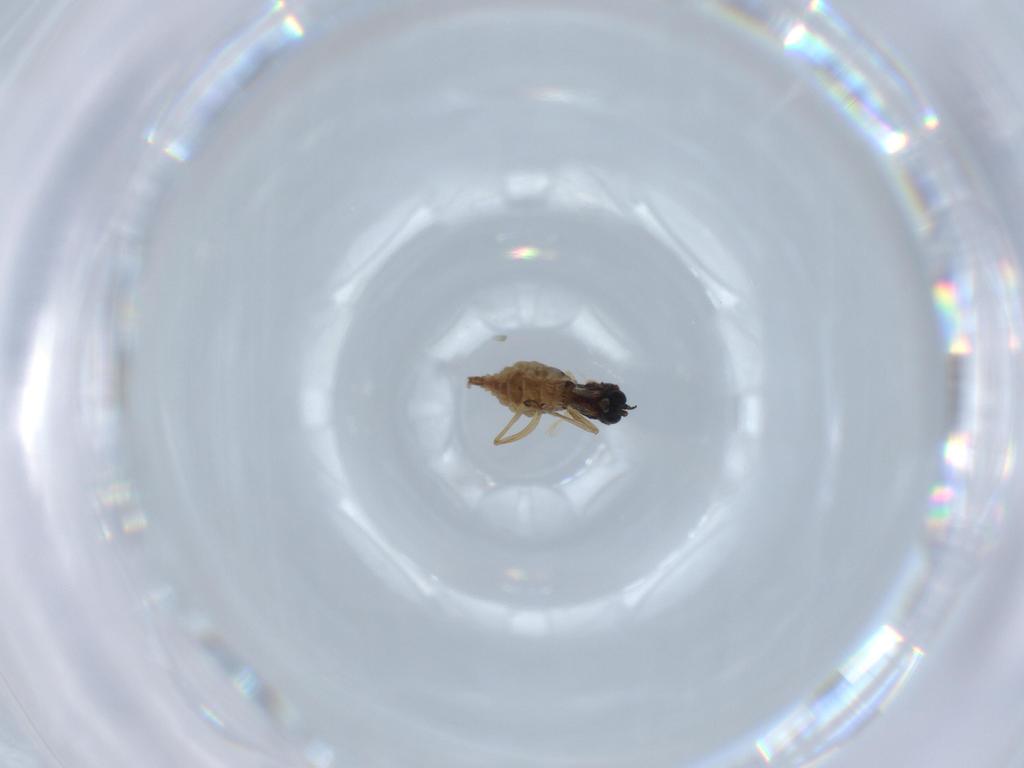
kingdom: Animalia
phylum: Arthropoda
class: Insecta
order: Diptera
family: Sciaridae
